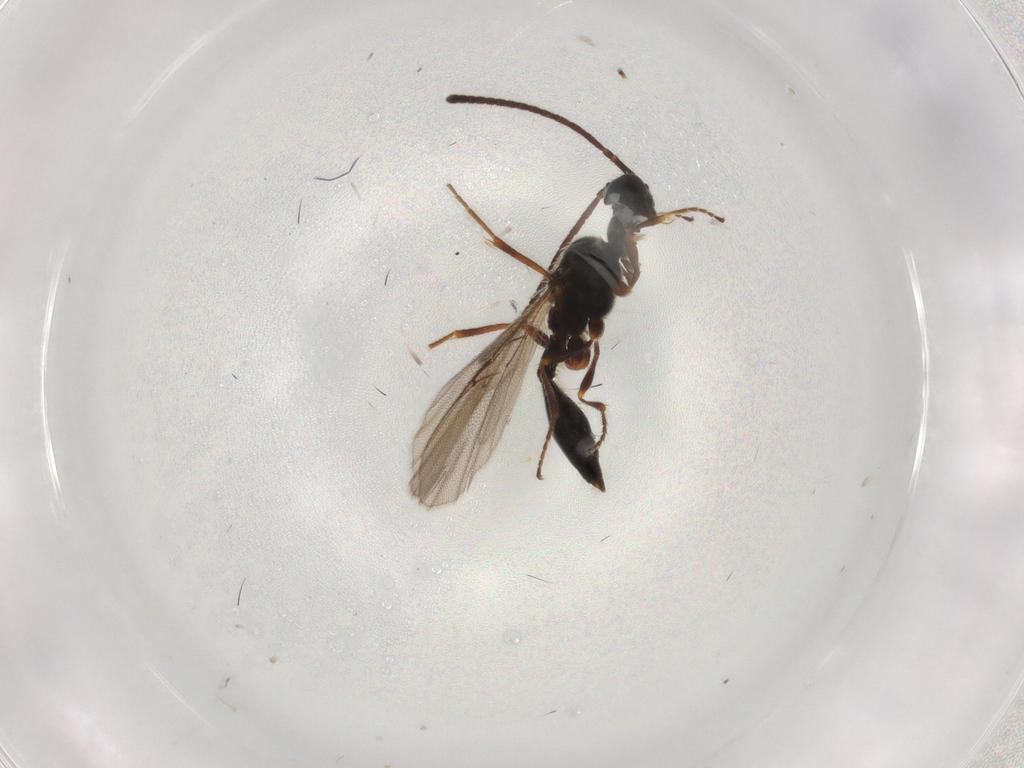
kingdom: Animalia
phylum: Arthropoda
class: Insecta
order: Hymenoptera
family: Diapriidae
